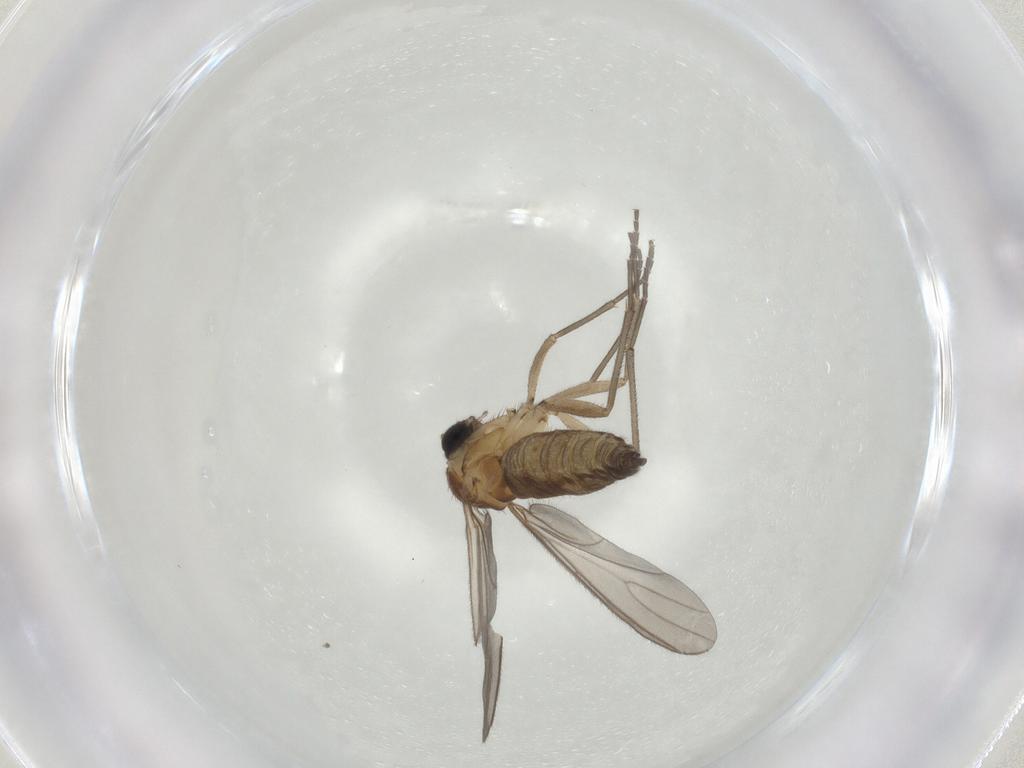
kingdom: Animalia
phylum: Arthropoda
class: Insecta
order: Diptera
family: Sciaridae
